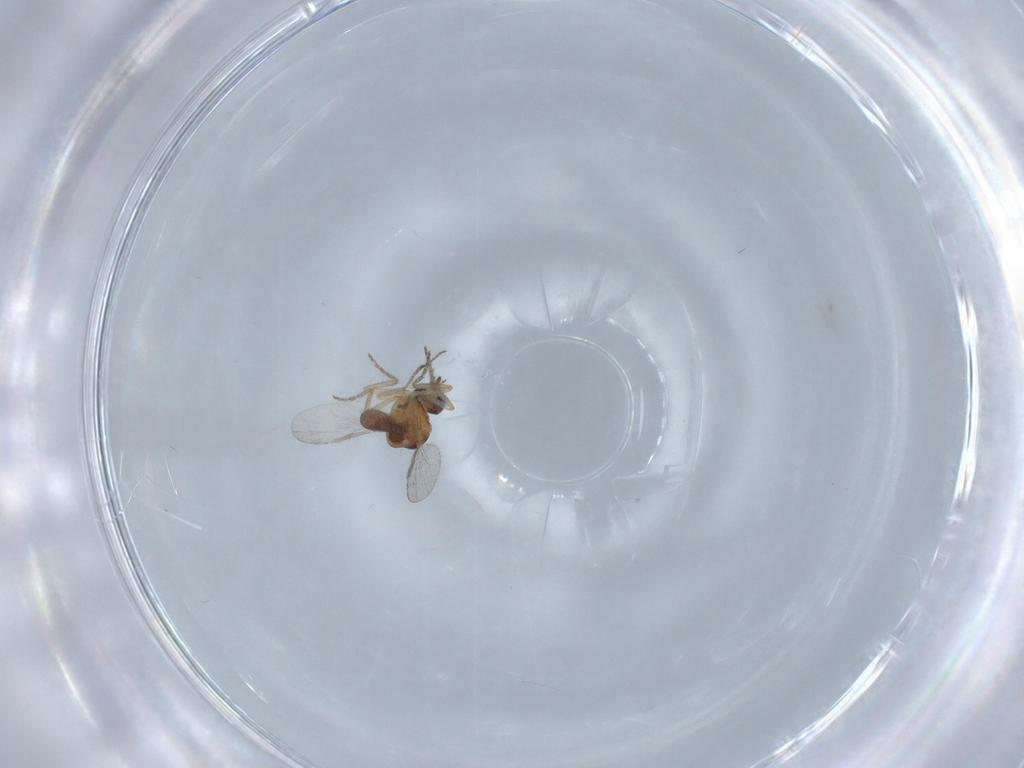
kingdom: Animalia
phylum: Arthropoda
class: Insecta
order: Diptera
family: Ceratopogonidae
